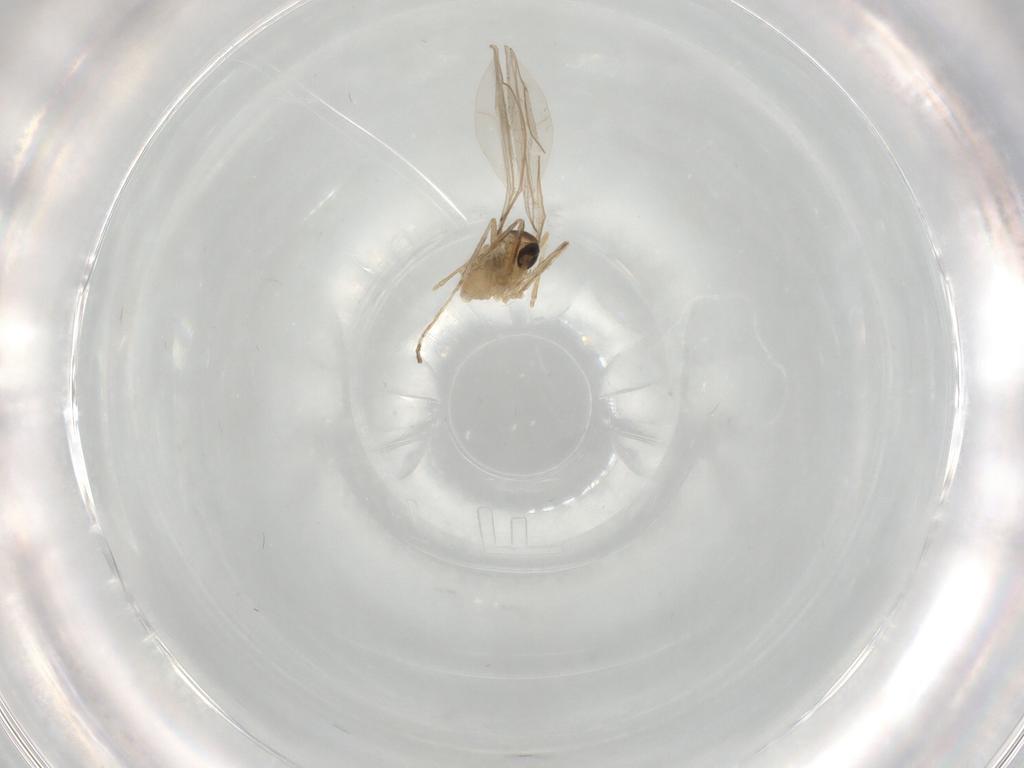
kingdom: Animalia
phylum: Arthropoda
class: Insecta
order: Diptera
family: Cecidomyiidae
